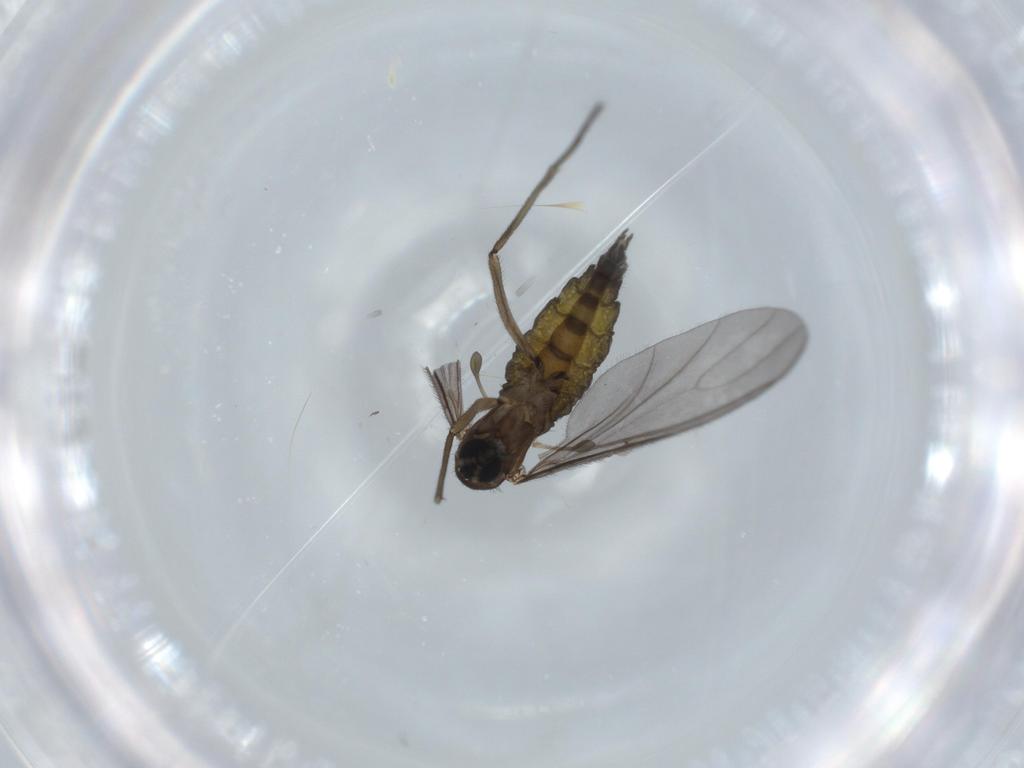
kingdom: Animalia
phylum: Arthropoda
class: Insecta
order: Diptera
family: Sciaridae
